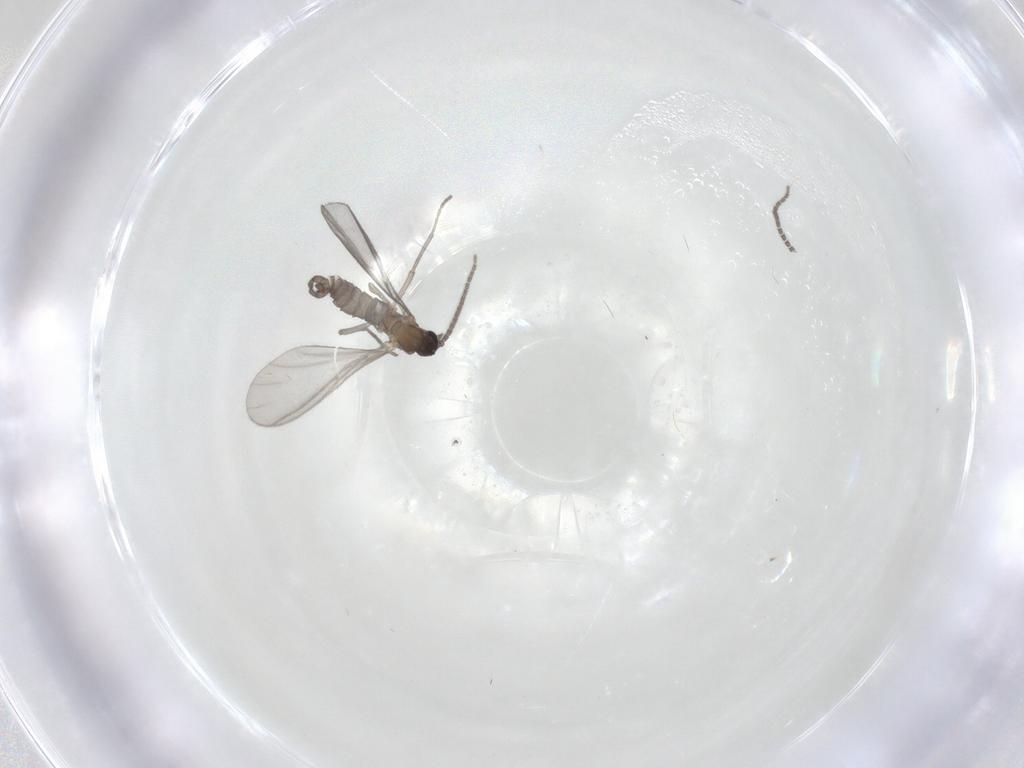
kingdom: Animalia
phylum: Arthropoda
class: Insecta
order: Diptera
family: Sciaridae
